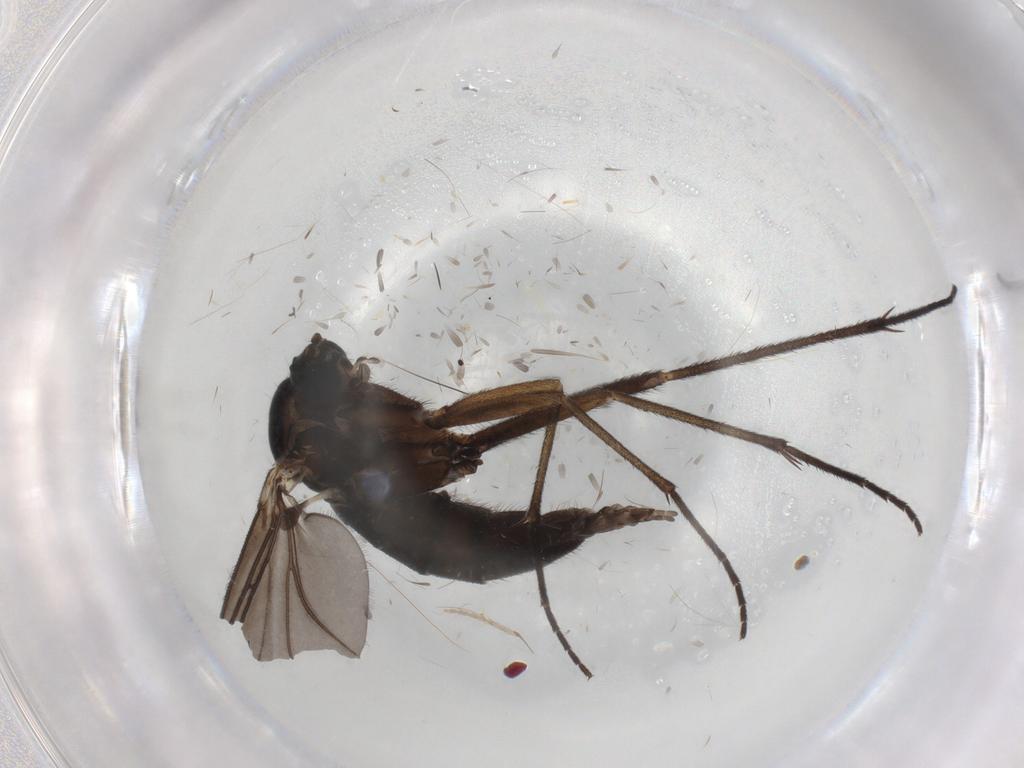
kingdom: Animalia
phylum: Arthropoda
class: Insecta
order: Diptera
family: Sciaridae
